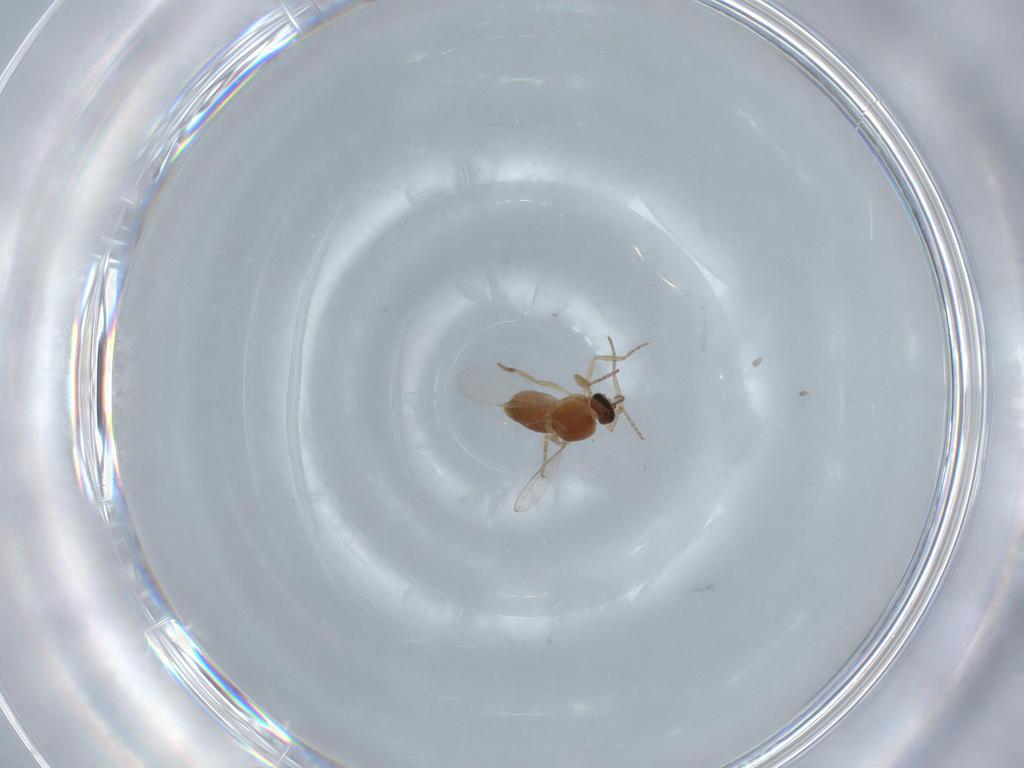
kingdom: Animalia
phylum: Arthropoda
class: Insecta
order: Diptera
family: Ceratopogonidae
